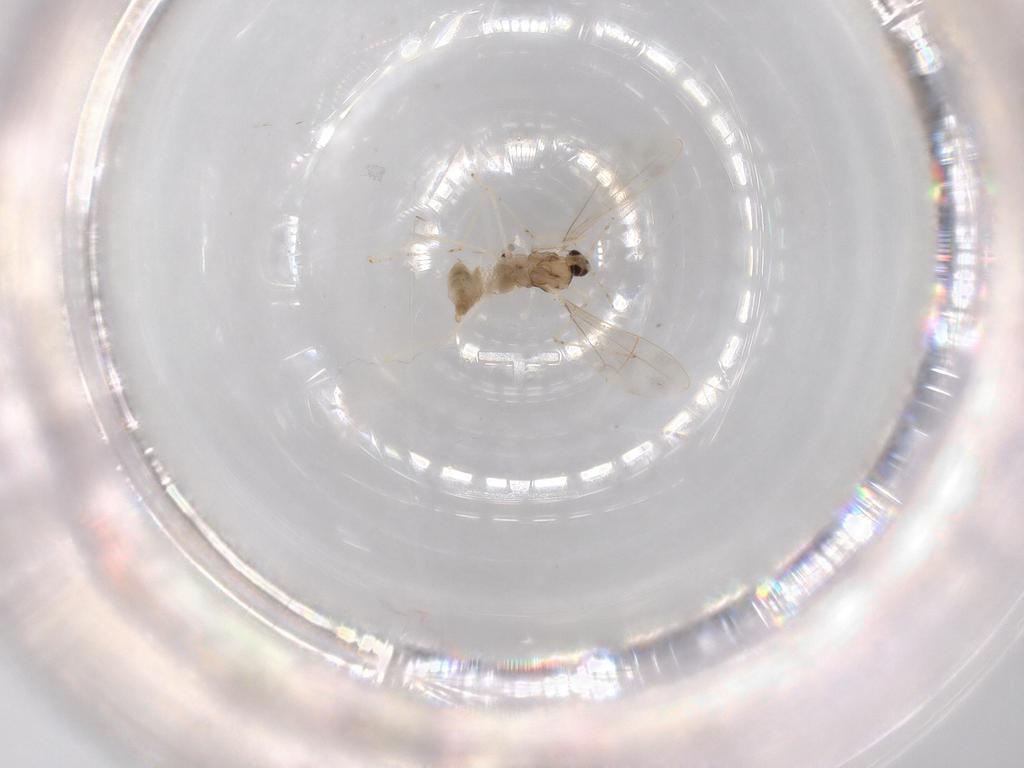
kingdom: Animalia
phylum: Arthropoda
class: Insecta
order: Diptera
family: Cecidomyiidae
